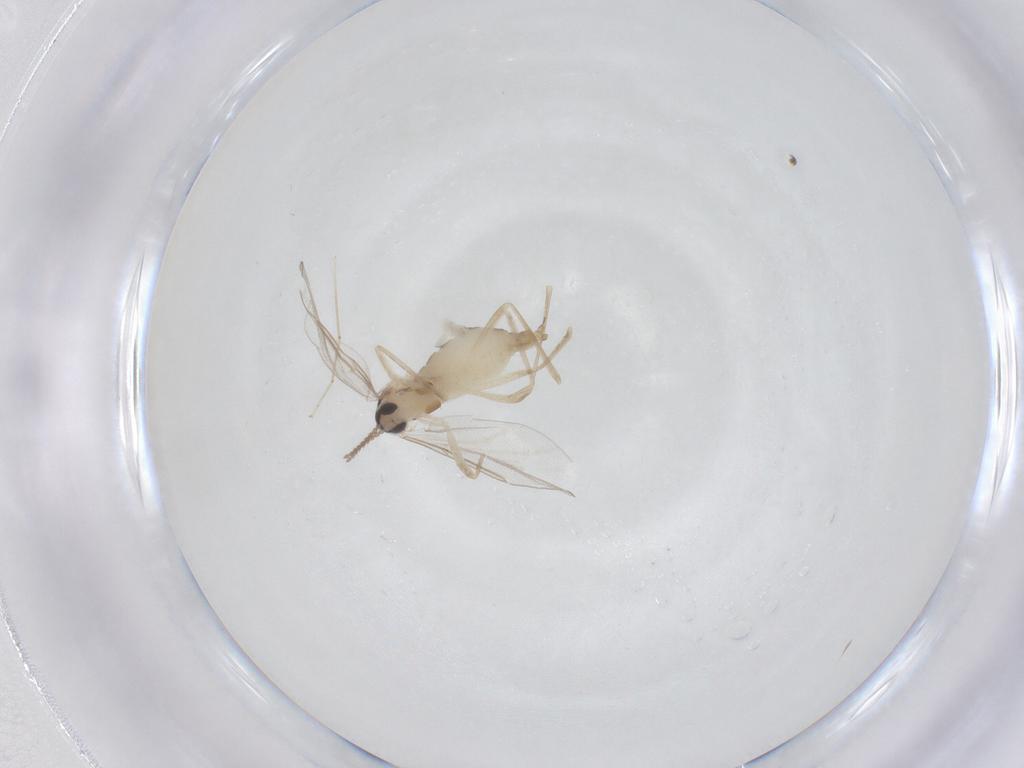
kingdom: Animalia
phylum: Arthropoda
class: Insecta
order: Diptera
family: Cecidomyiidae
